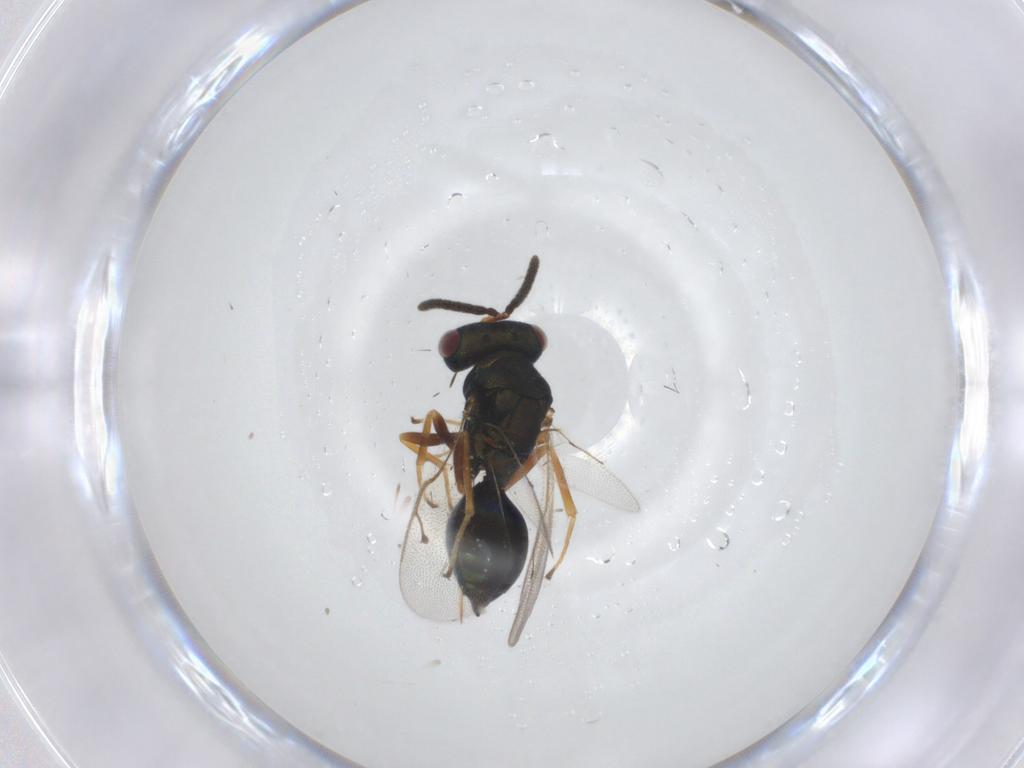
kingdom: Animalia
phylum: Arthropoda
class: Insecta
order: Hymenoptera
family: Pteromalidae
